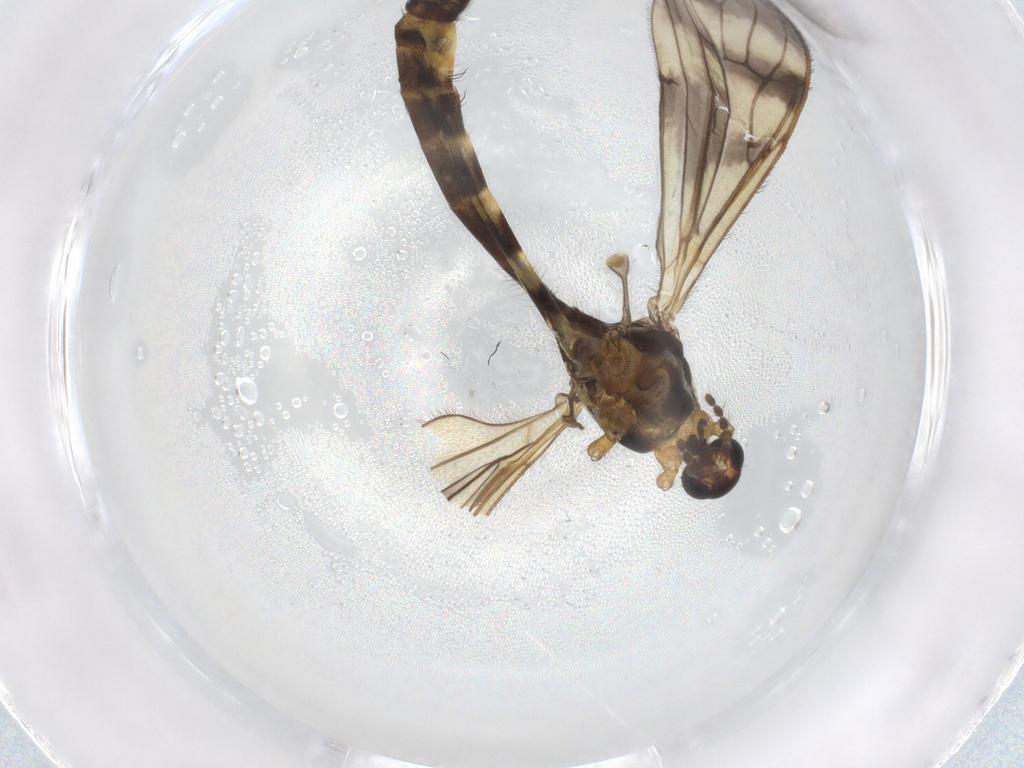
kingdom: Animalia
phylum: Arthropoda
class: Insecta
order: Diptera
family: Limoniidae
